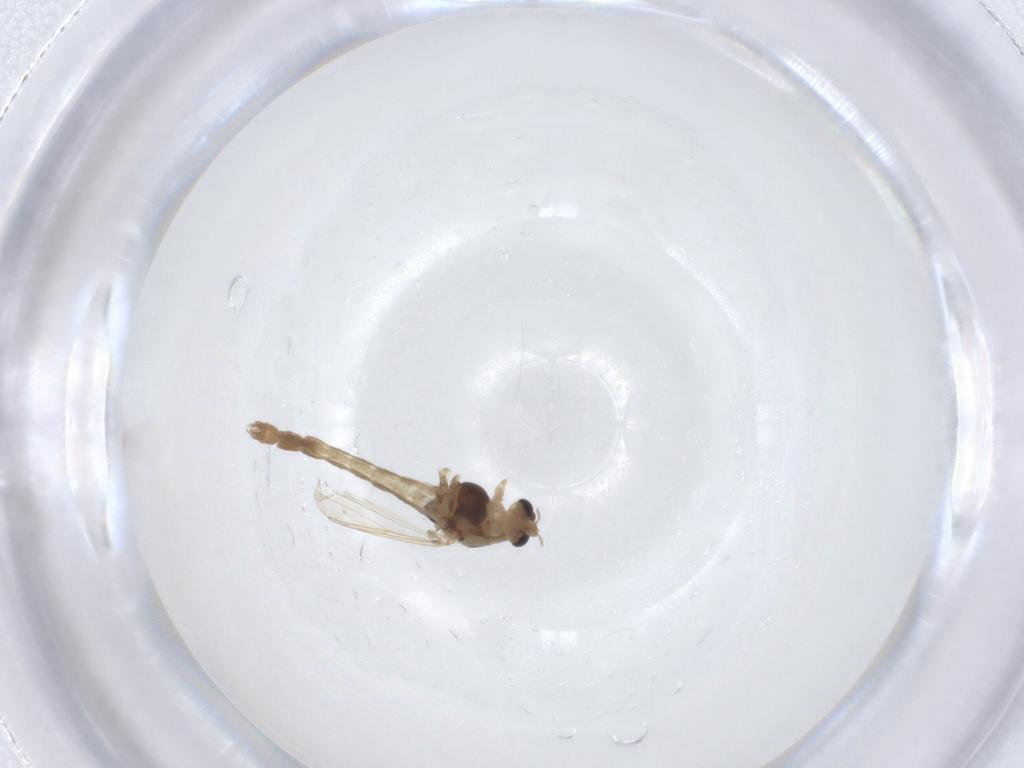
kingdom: Animalia
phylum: Arthropoda
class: Insecta
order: Diptera
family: Chironomidae
